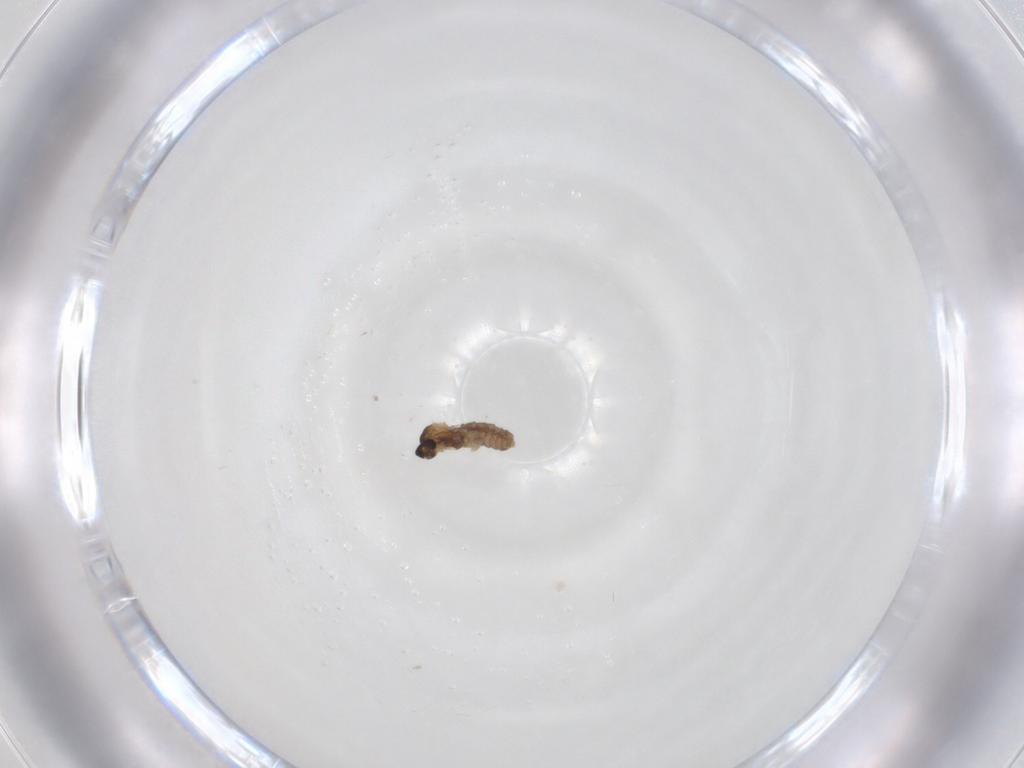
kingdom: Animalia
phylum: Arthropoda
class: Insecta
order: Diptera
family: Cecidomyiidae
